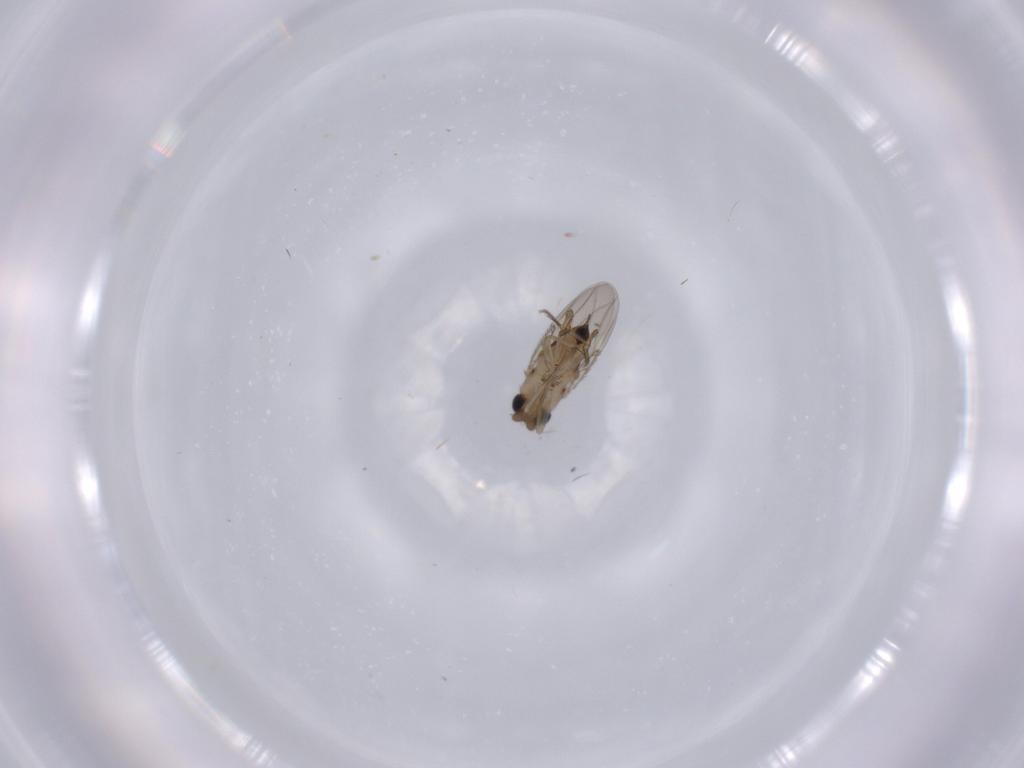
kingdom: Animalia
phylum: Arthropoda
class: Insecta
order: Diptera
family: Phoridae
